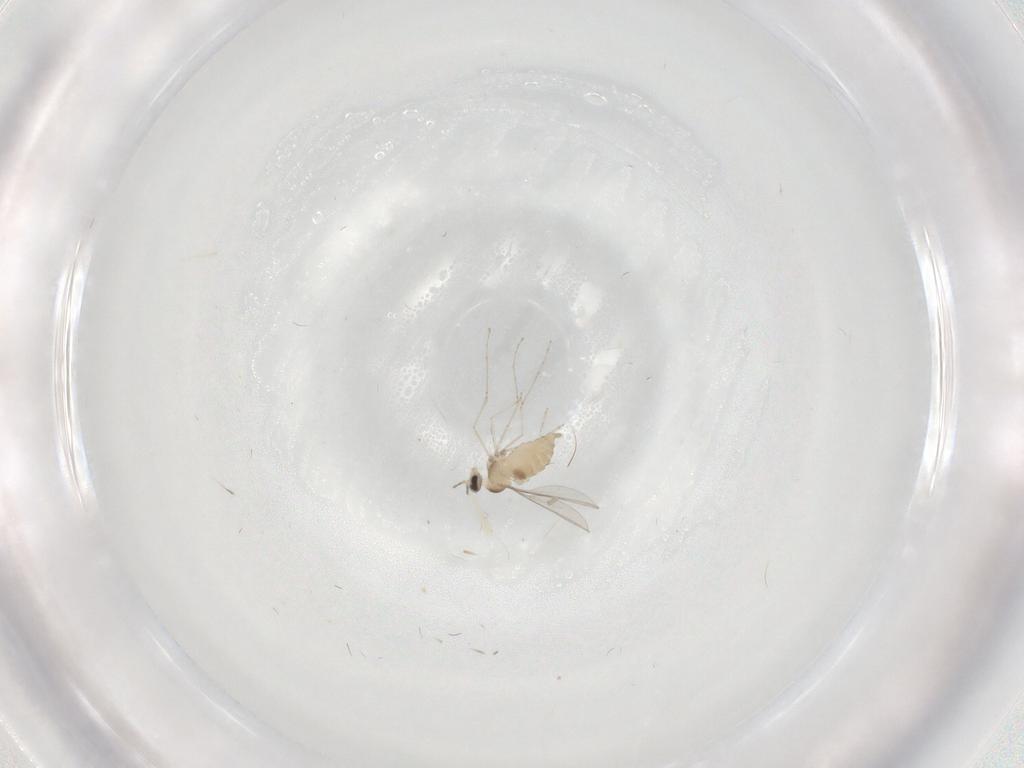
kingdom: Animalia
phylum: Arthropoda
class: Insecta
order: Diptera
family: Cecidomyiidae
